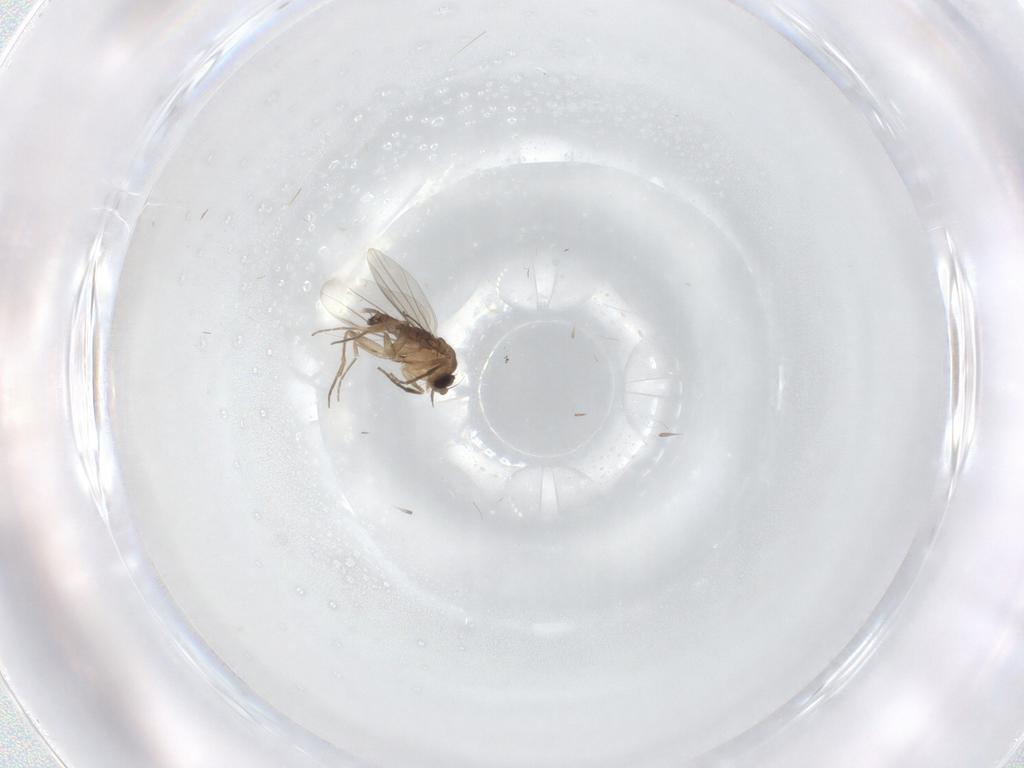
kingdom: Animalia
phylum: Arthropoda
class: Insecta
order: Diptera
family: Phoridae
